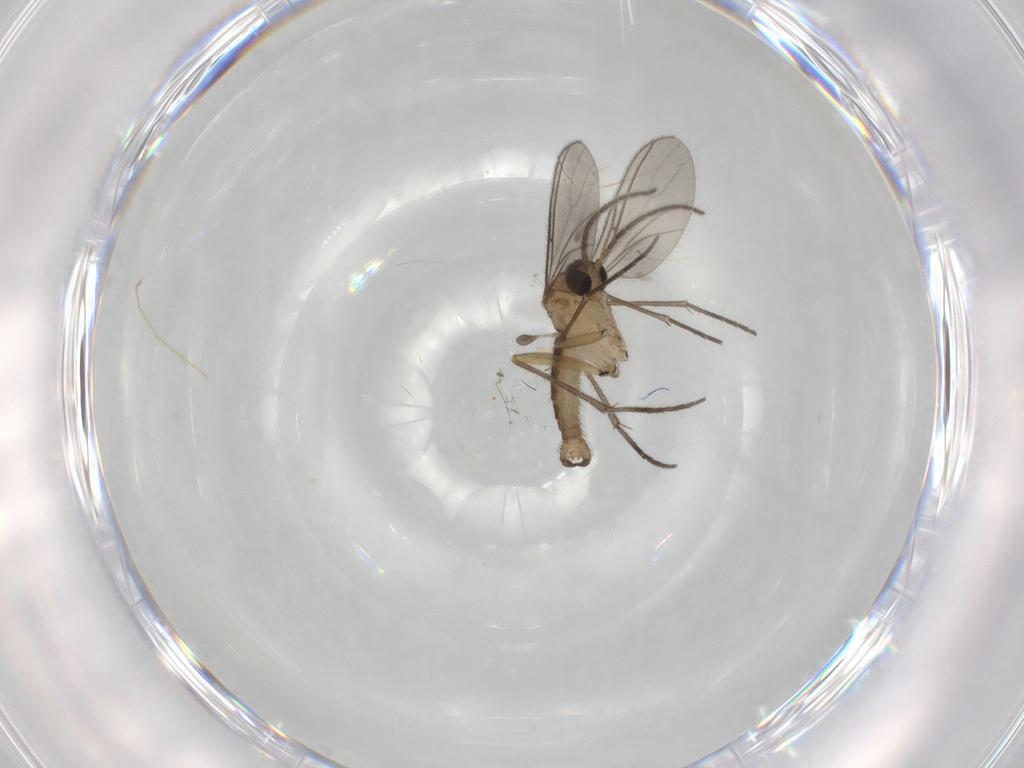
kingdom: Animalia
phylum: Arthropoda
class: Insecta
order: Diptera
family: Sciaridae
